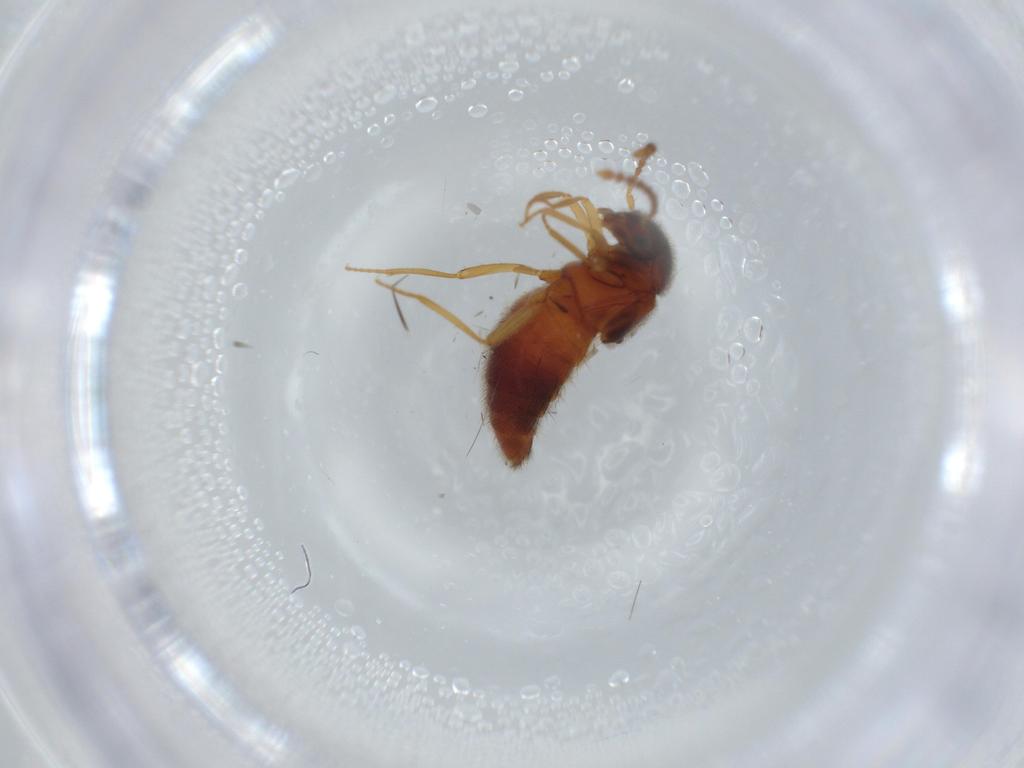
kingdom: Animalia
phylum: Arthropoda
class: Insecta
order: Coleoptera
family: Staphylinidae
